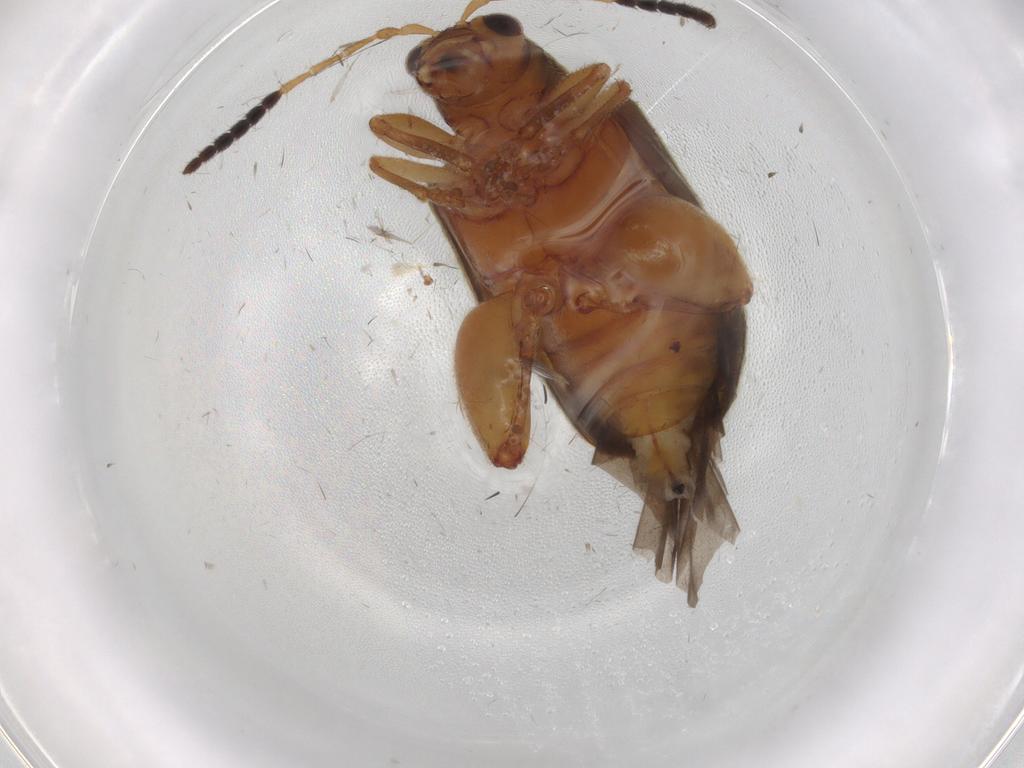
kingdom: Animalia
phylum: Arthropoda
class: Insecta
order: Coleoptera
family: Chrysomelidae
